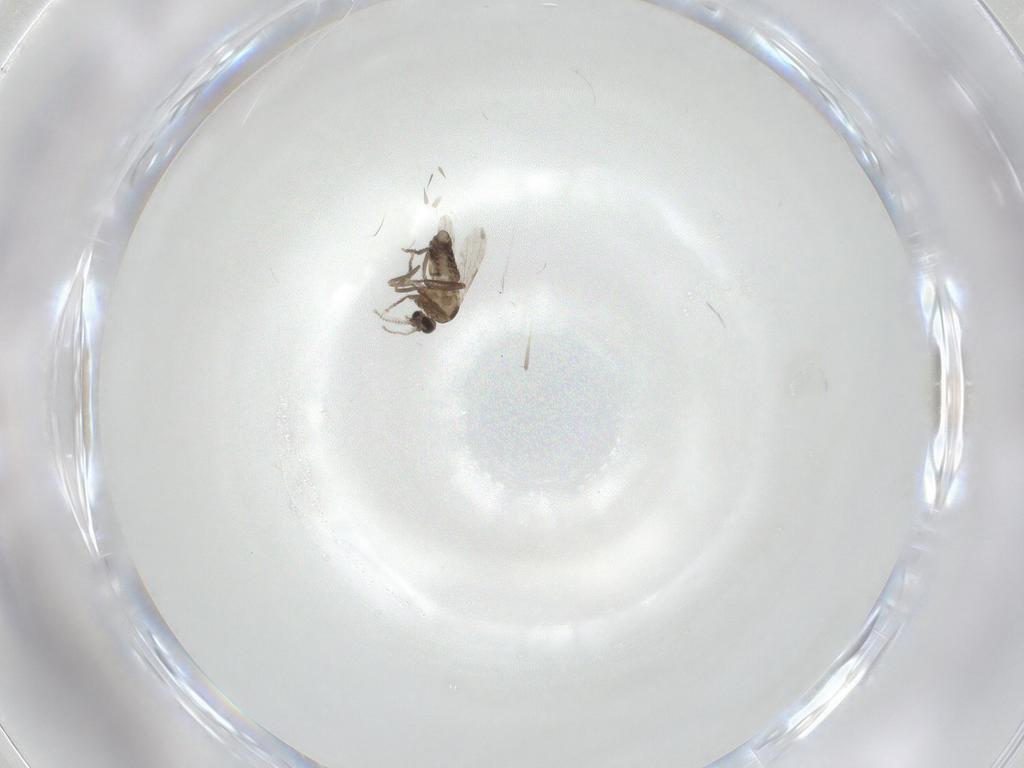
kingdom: Animalia
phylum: Arthropoda
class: Insecta
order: Diptera
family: Ceratopogonidae
